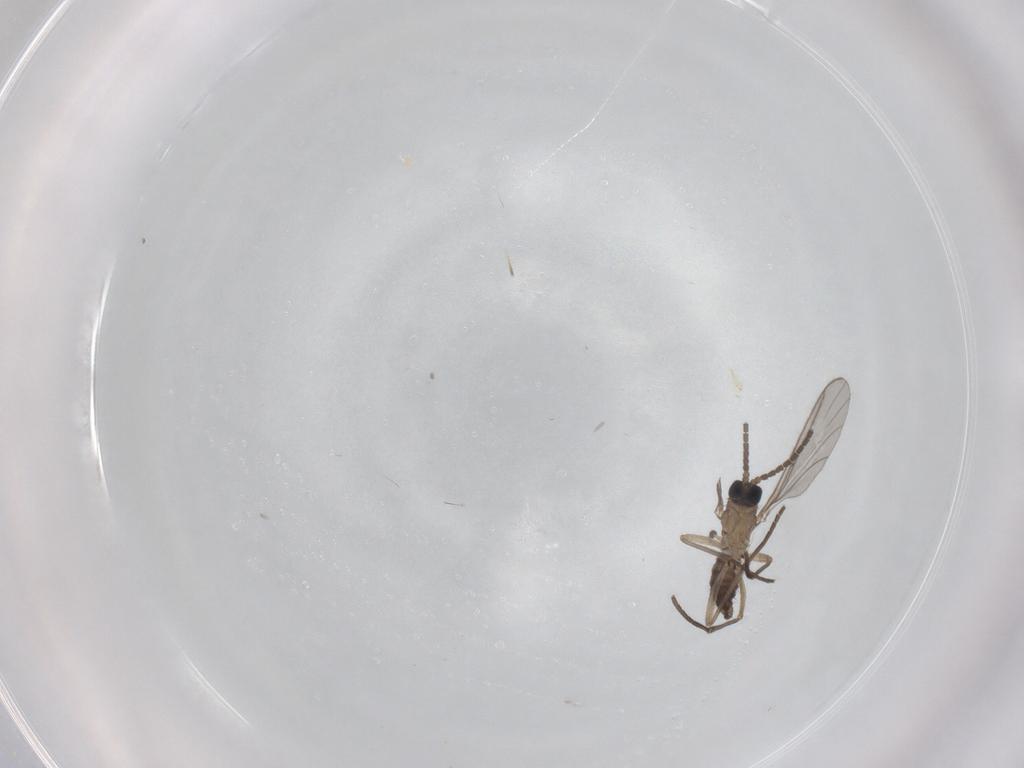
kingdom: Animalia
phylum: Arthropoda
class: Insecta
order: Diptera
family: Sciaridae
